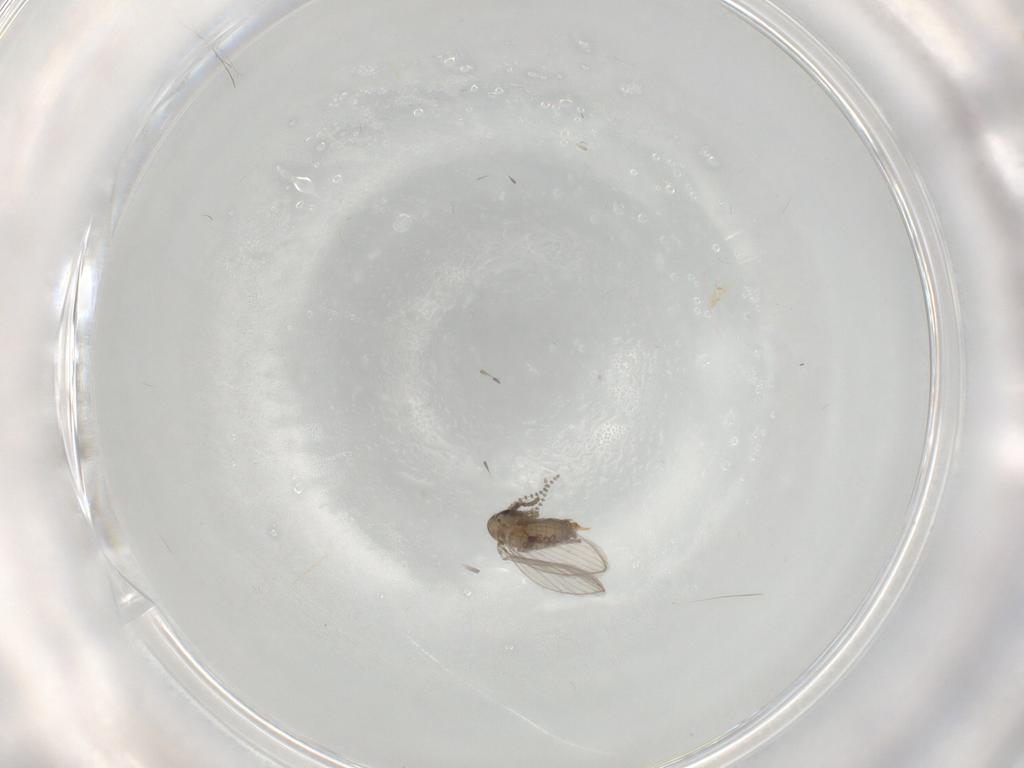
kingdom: Animalia
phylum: Arthropoda
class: Insecta
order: Diptera
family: Psychodidae
